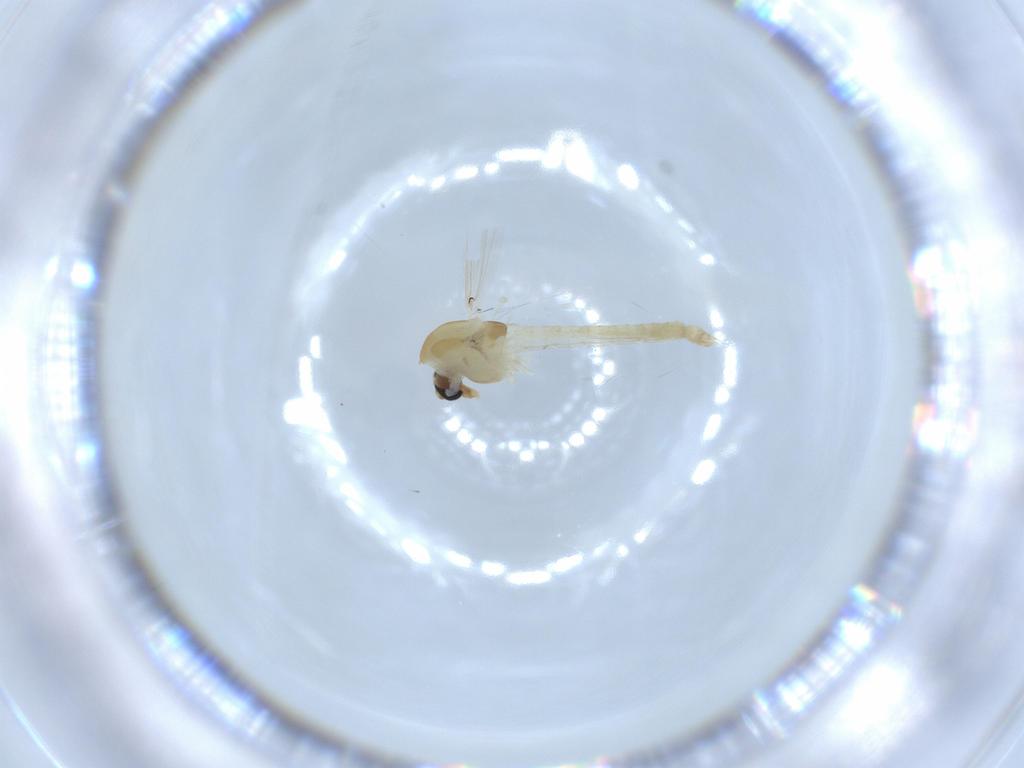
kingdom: Animalia
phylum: Arthropoda
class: Insecta
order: Diptera
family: Chironomidae
